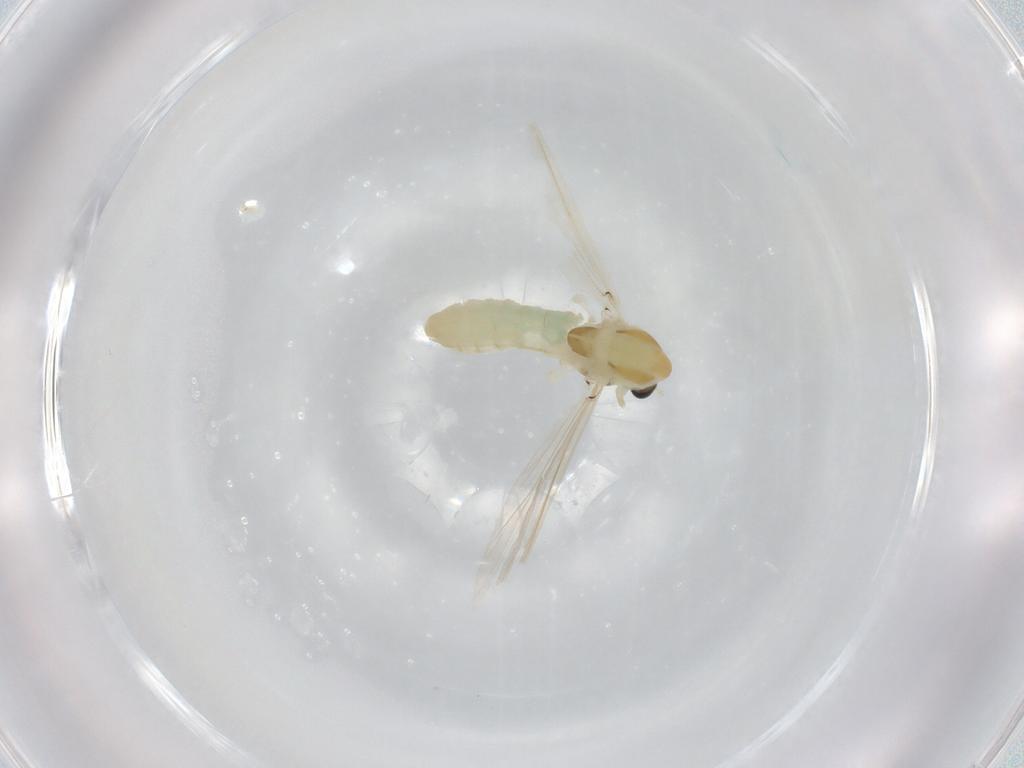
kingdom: Animalia
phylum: Arthropoda
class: Insecta
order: Diptera
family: Chironomidae
